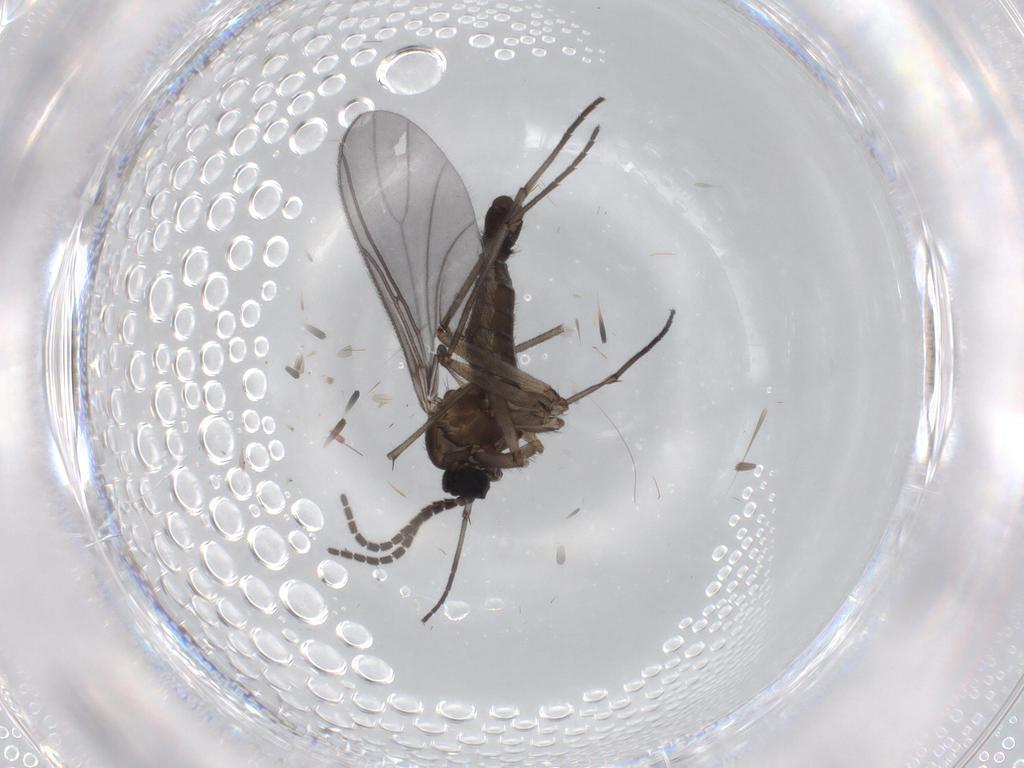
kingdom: Animalia
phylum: Arthropoda
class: Insecta
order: Diptera
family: Sciaridae
